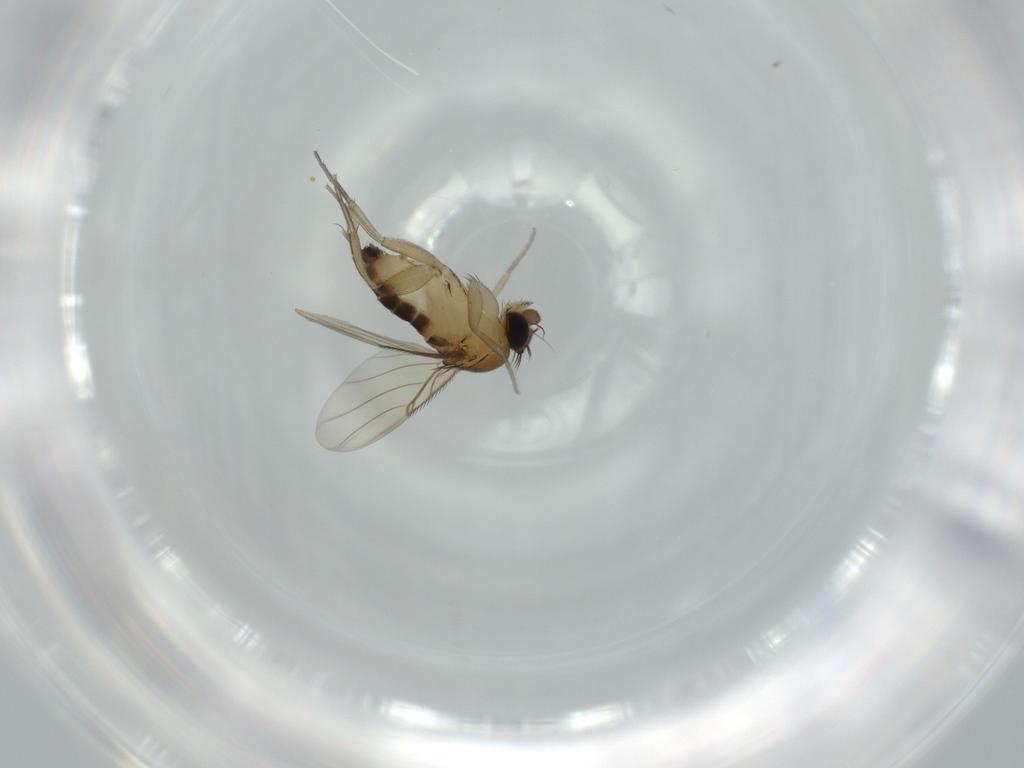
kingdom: Animalia
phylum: Arthropoda
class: Insecta
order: Diptera
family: Phoridae
